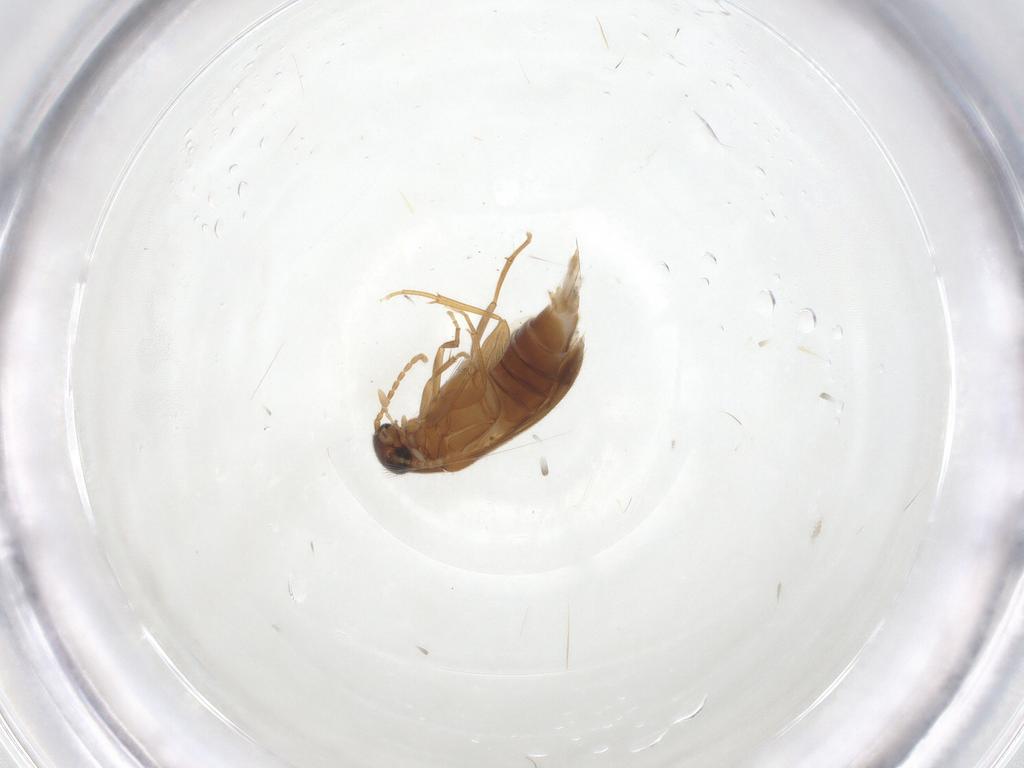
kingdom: Animalia
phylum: Arthropoda
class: Insecta
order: Coleoptera
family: Scraptiidae
